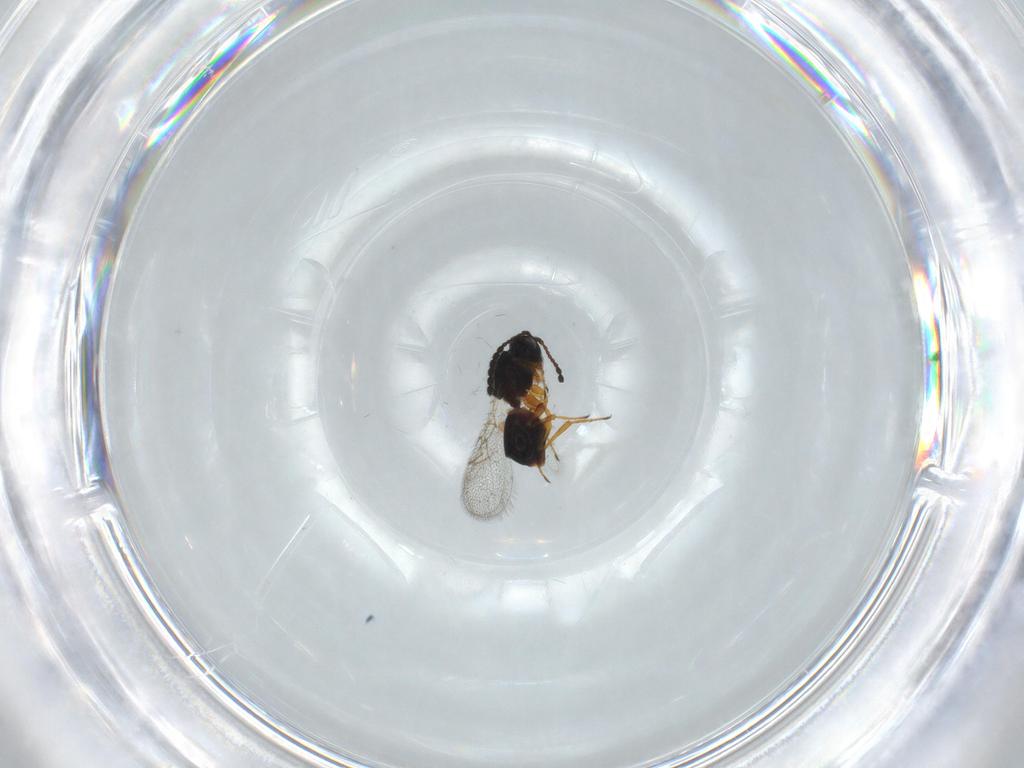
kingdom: Animalia
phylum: Arthropoda
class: Insecta
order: Hymenoptera
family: Figitidae
